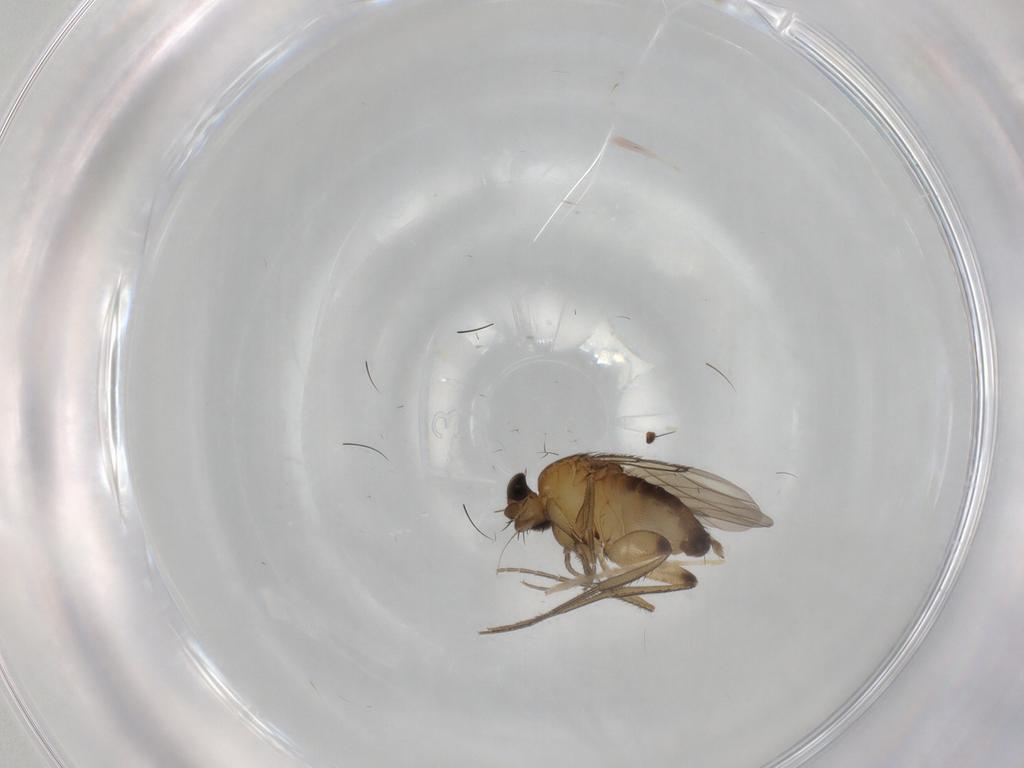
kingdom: Animalia
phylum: Arthropoda
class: Insecta
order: Diptera
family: Phoridae
